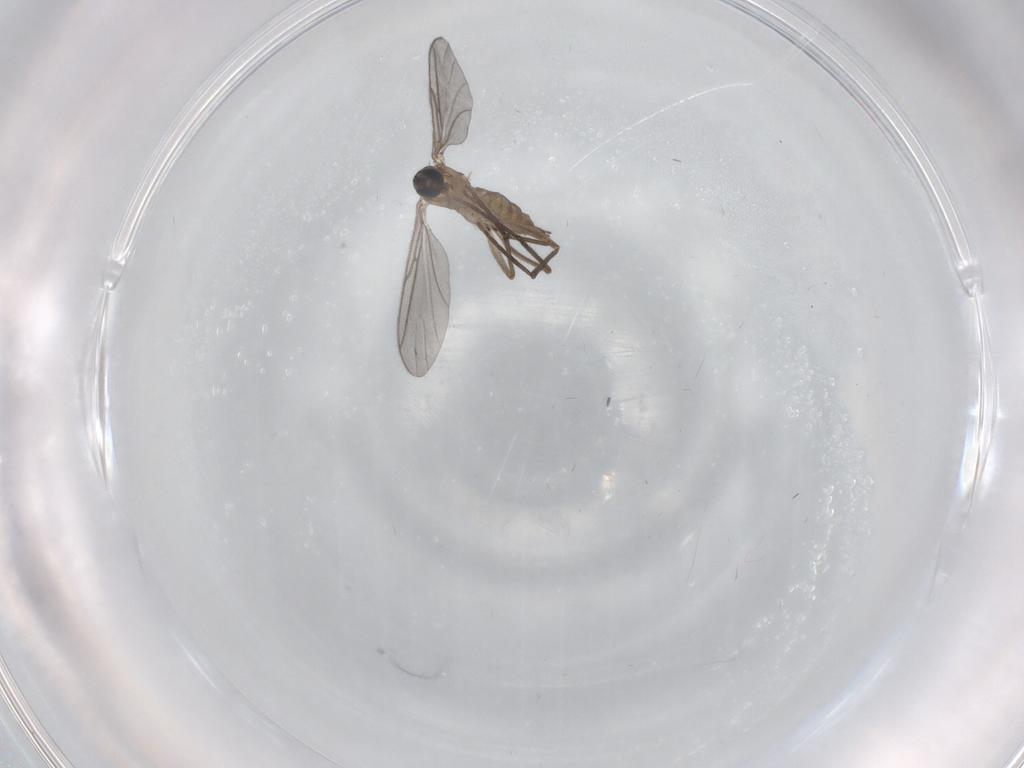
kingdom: Animalia
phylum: Arthropoda
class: Insecta
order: Diptera
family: Sciaridae
